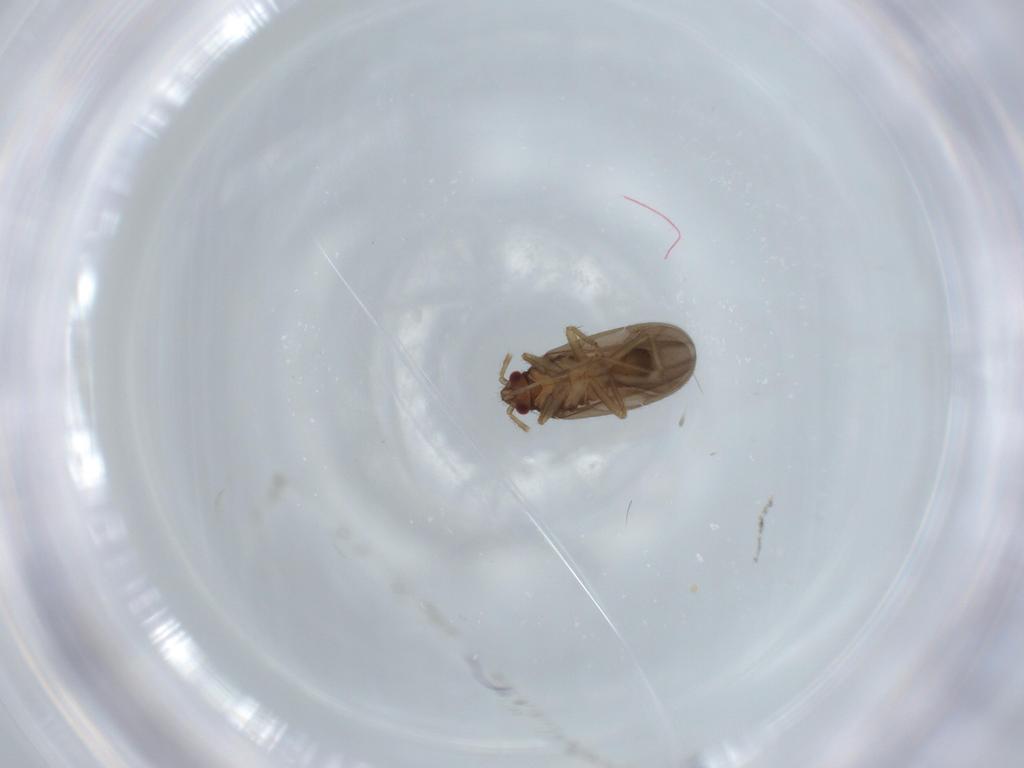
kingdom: Animalia
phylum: Arthropoda
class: Insecta
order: Hemiptera
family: Ceratocombidae
